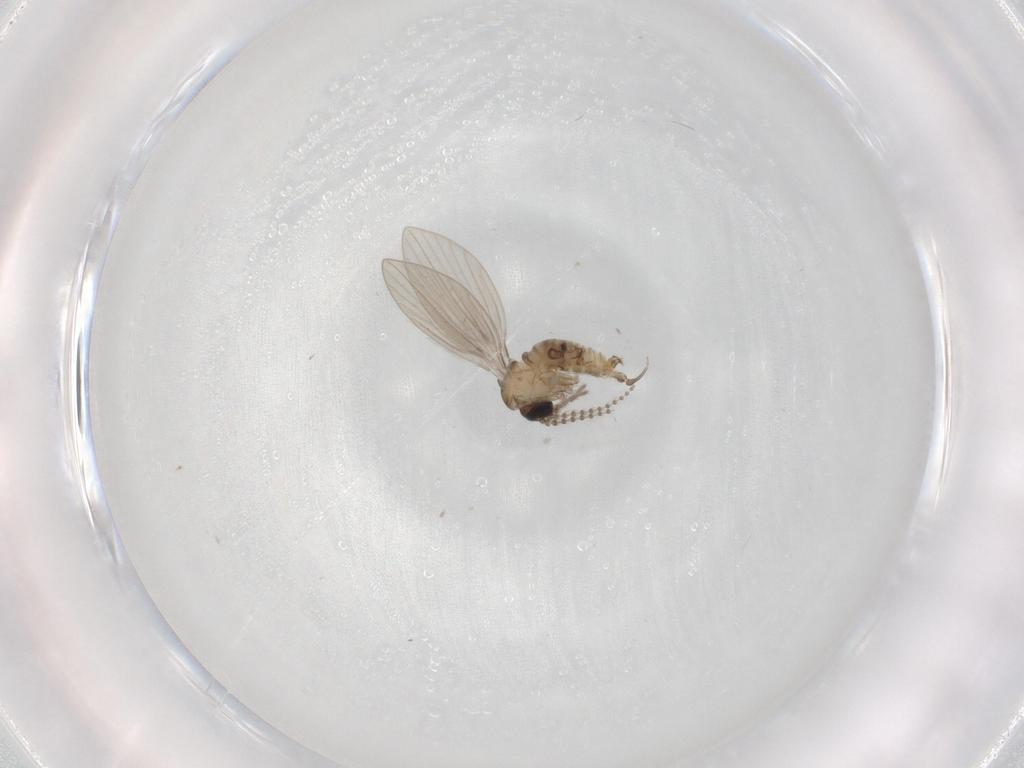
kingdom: Animalia
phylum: Arthropoda
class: Insecta
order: Diptera
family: Psychodidae
